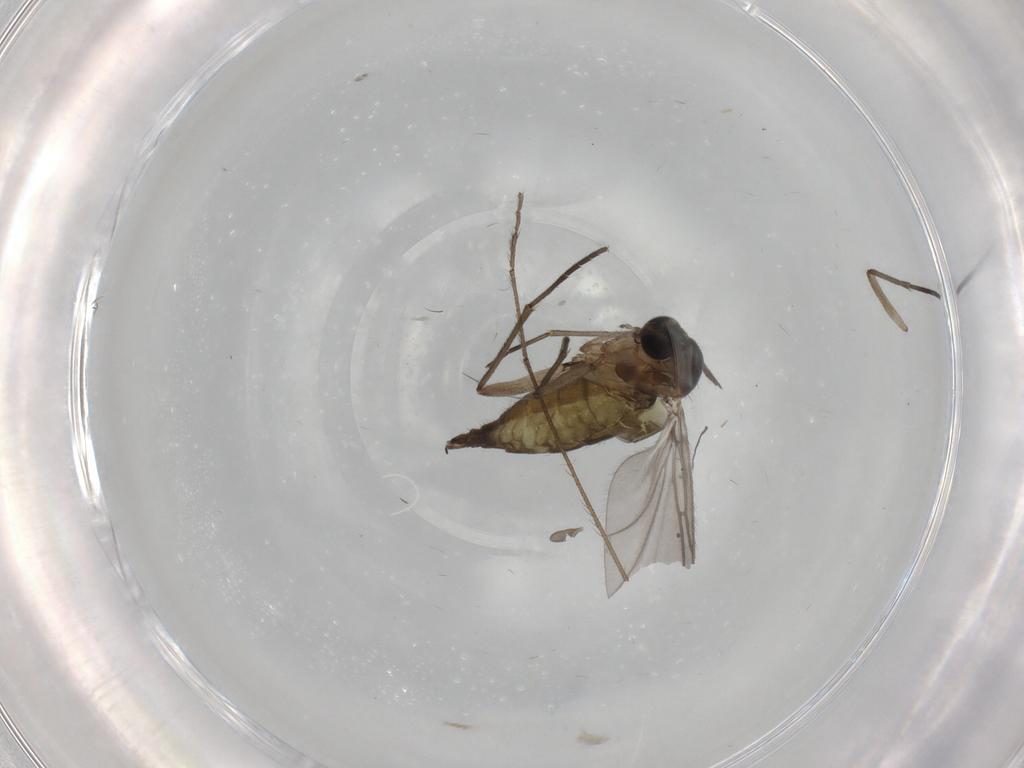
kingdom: Animalia
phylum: Arthropoda
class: Insecta
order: Diptera
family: Chironomidae
